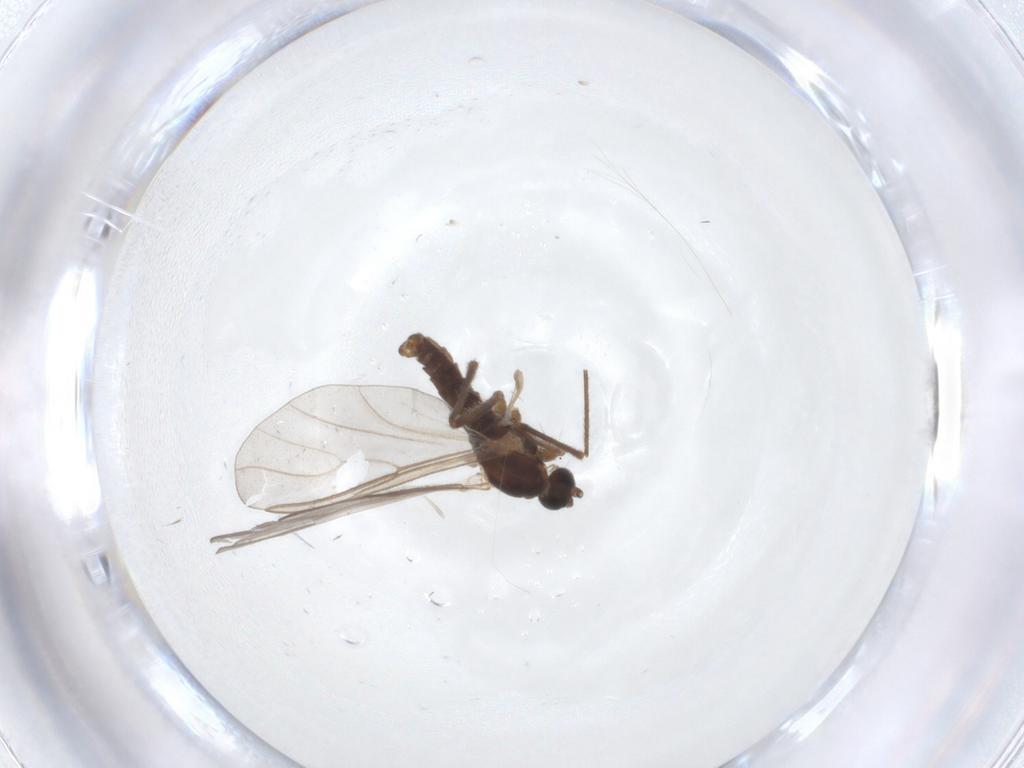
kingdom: Animalia
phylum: Arthropoda
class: Insecta
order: Diptera
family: Cecidomyiidae
